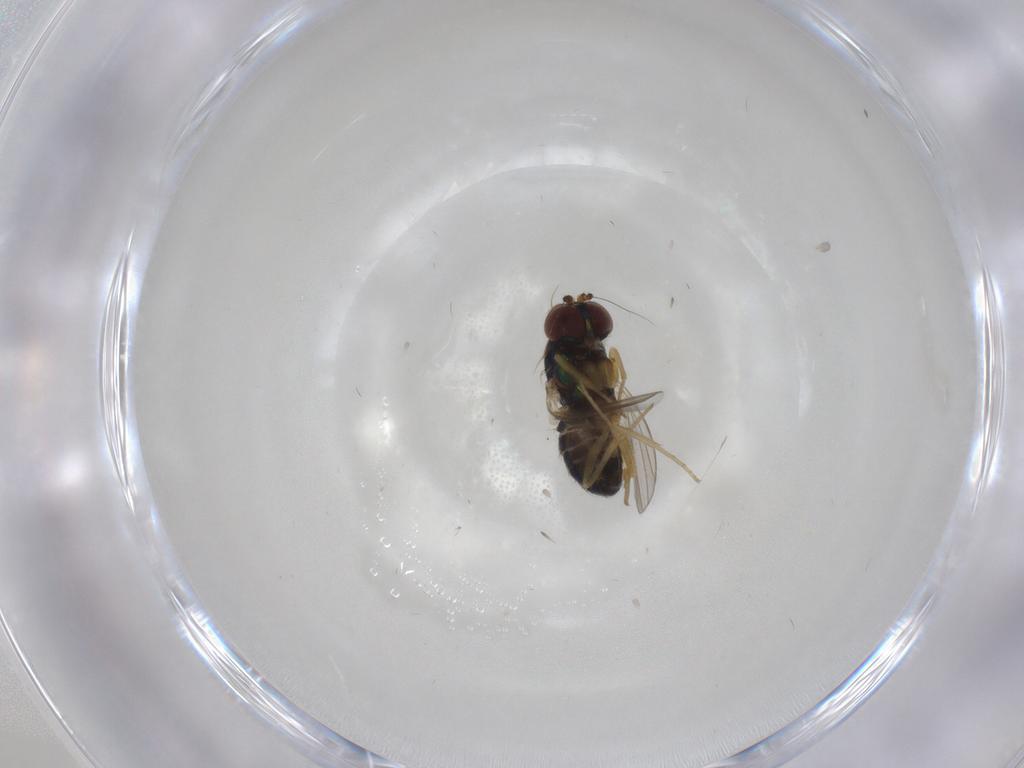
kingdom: Animalia
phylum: Arthropoda
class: Insecta
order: Diptera
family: Dolichopodidae
